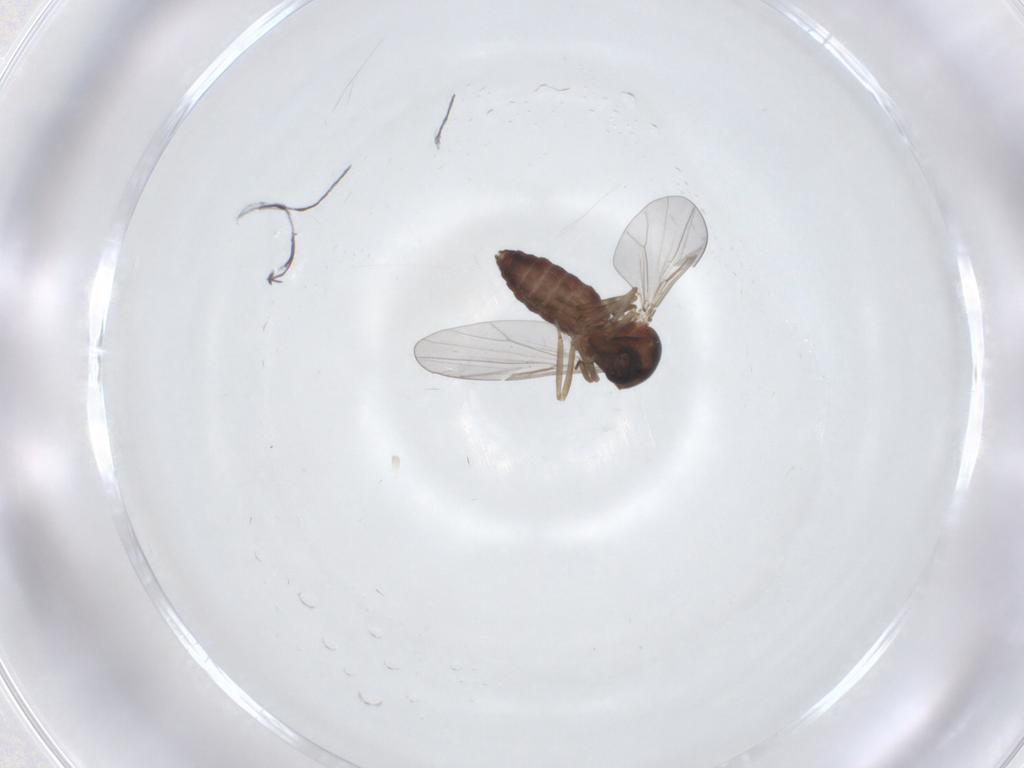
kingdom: Animalia
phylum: Arthropoda
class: Insecta
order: Diptera
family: Ceratopogonidae
